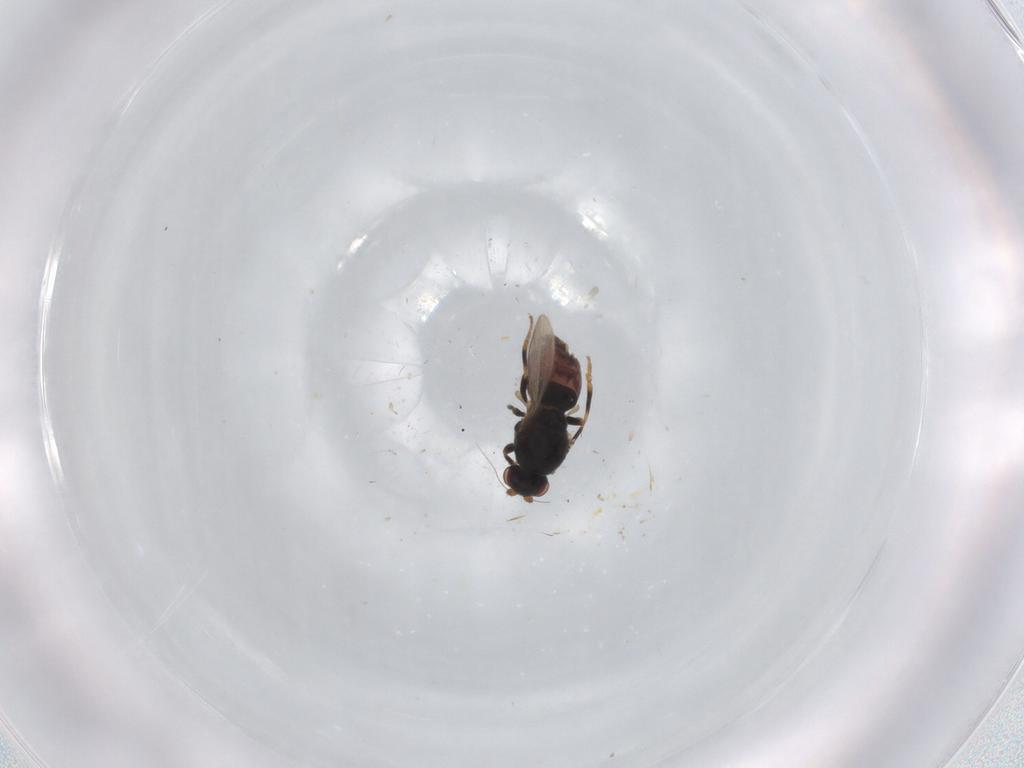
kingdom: Animalia
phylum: Arthropoda
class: Insecta
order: Diptera
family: Sphaeroceridae
